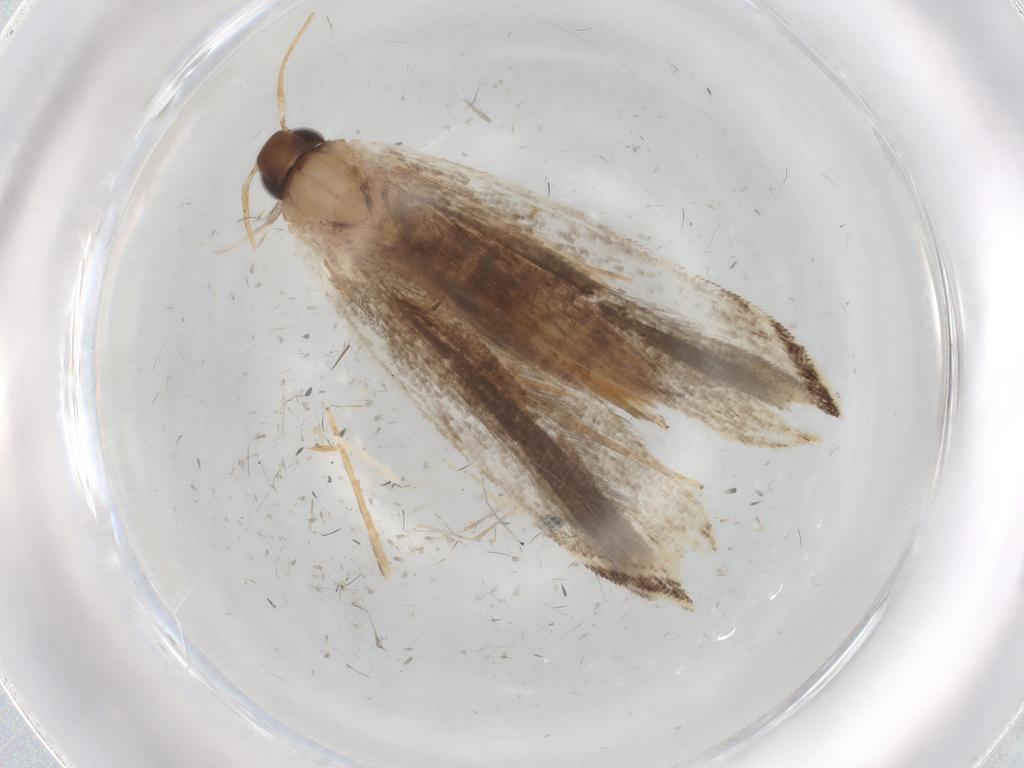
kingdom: Animalia
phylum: Arthropoda
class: Insecta
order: Lepidoptera
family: Gelechiidae
